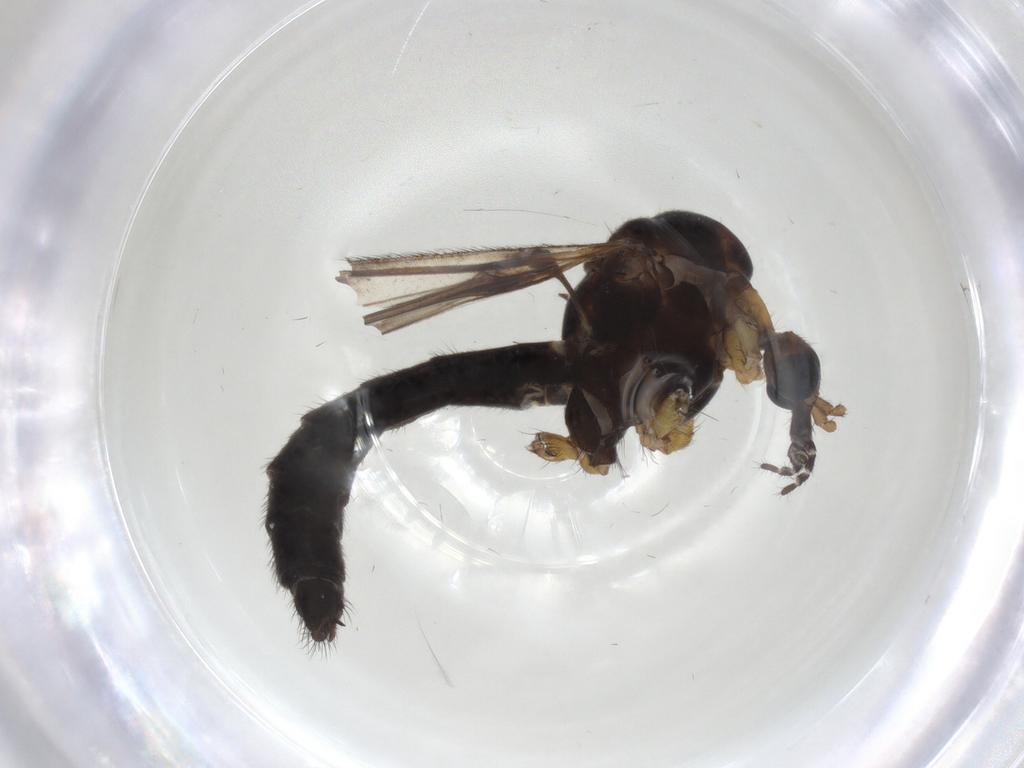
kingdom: Animalia
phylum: Arthropoda
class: Insecta
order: Diptera
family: Limoniidae
